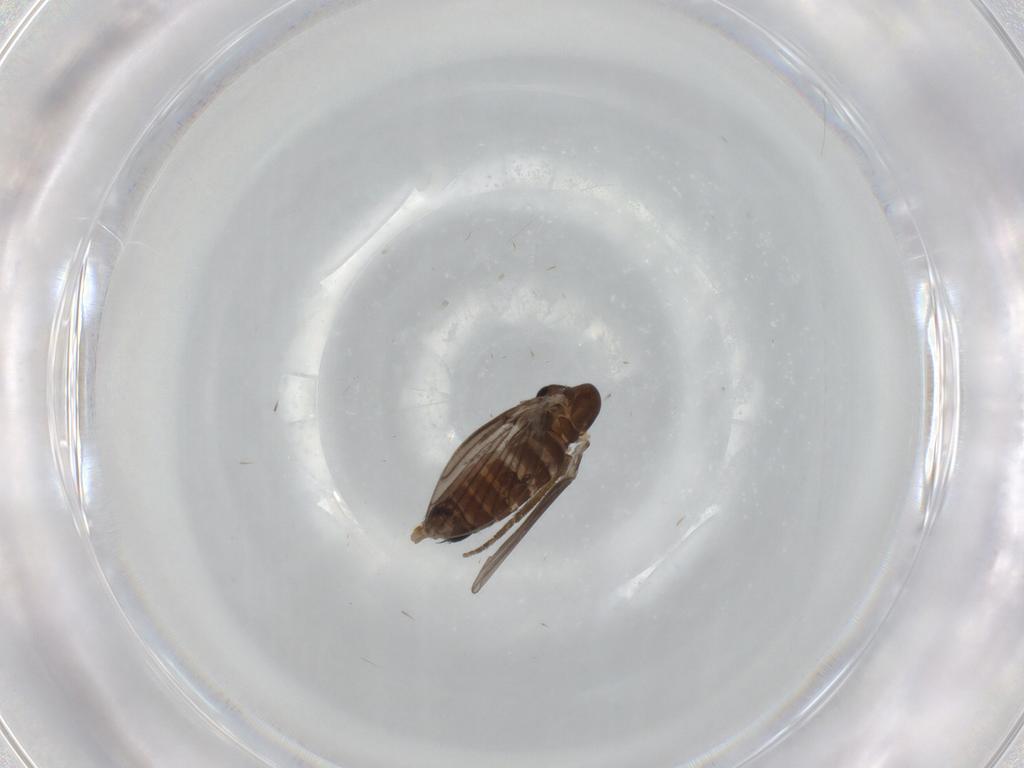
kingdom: Animalia
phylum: Arthropoda
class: Insecta
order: Diptera
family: Dolichopodidae
